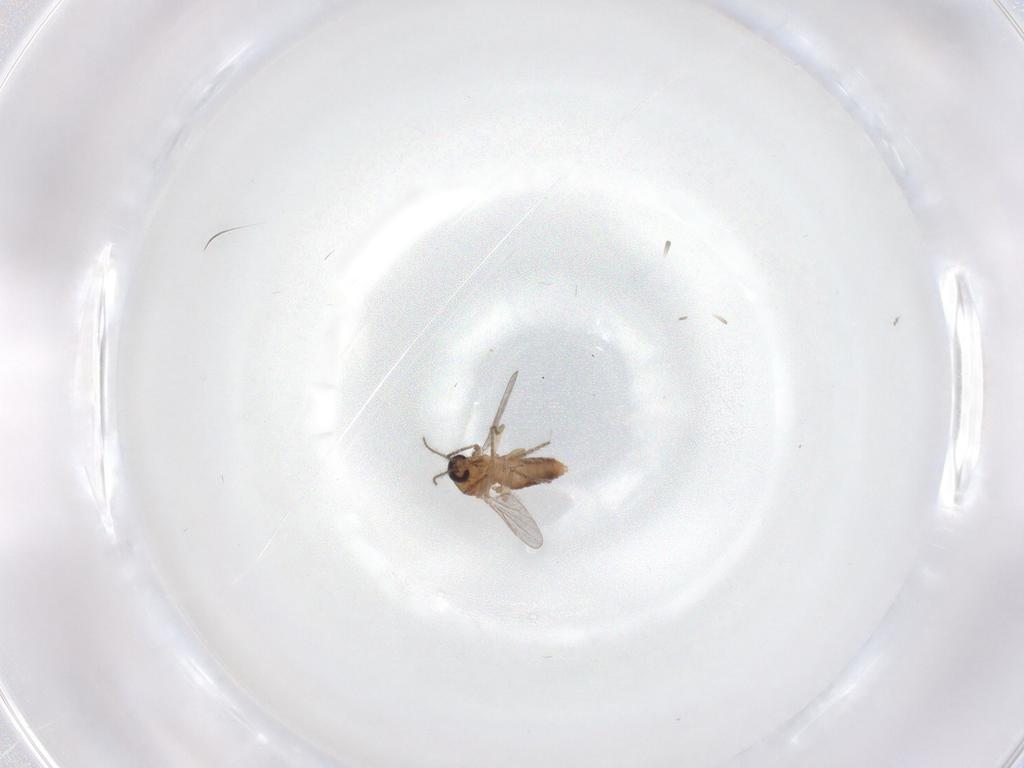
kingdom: Animalia
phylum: Arthropoda
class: Insecta
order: Diptera
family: Ceratopogonidae
